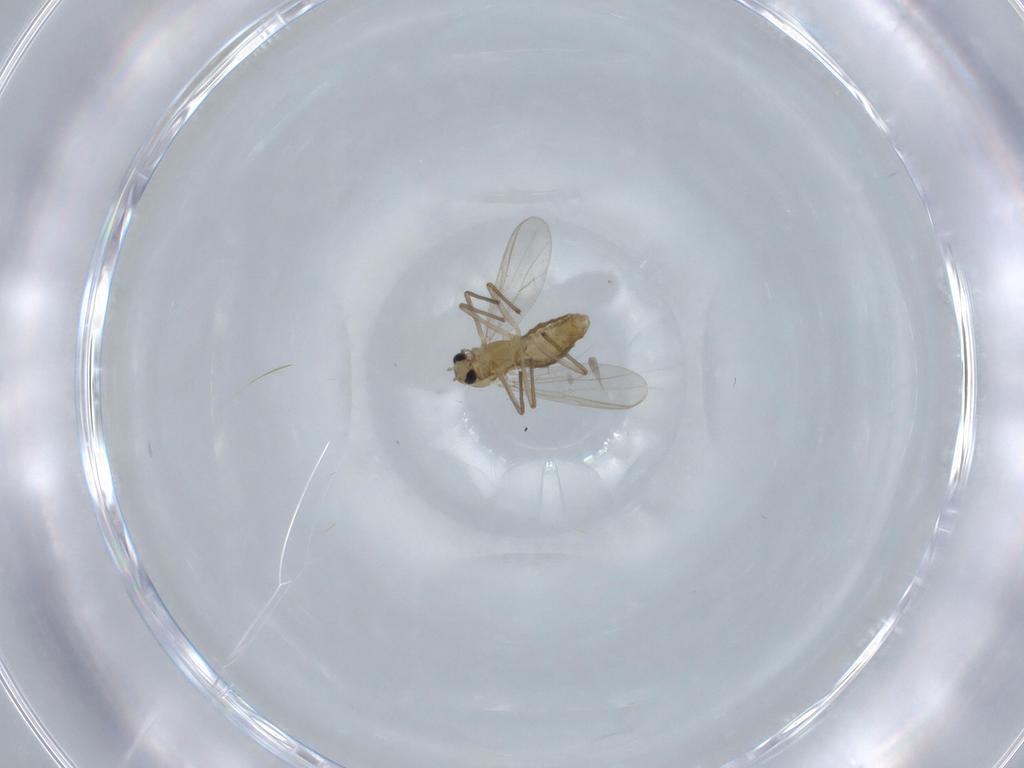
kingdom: Animalia
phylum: Arthropoda
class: Insecta
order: Diptera
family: Chironomidae
